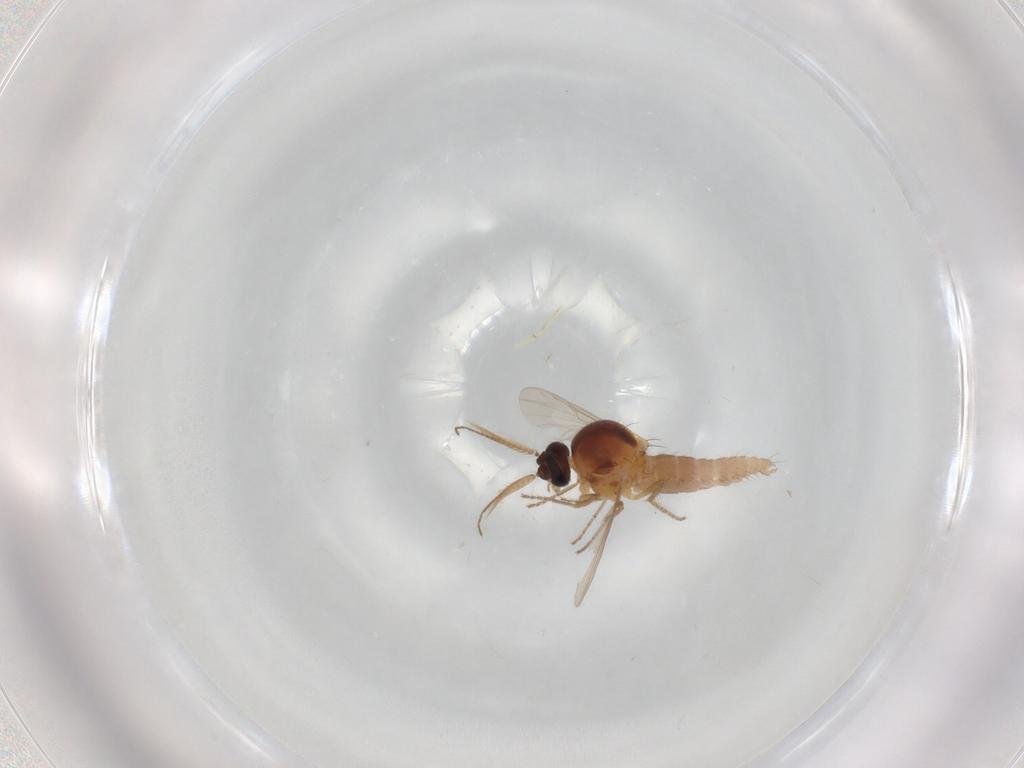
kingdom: Animalia
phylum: Arthropoda
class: Insecta
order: Diptera
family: Ceratopogonidae
